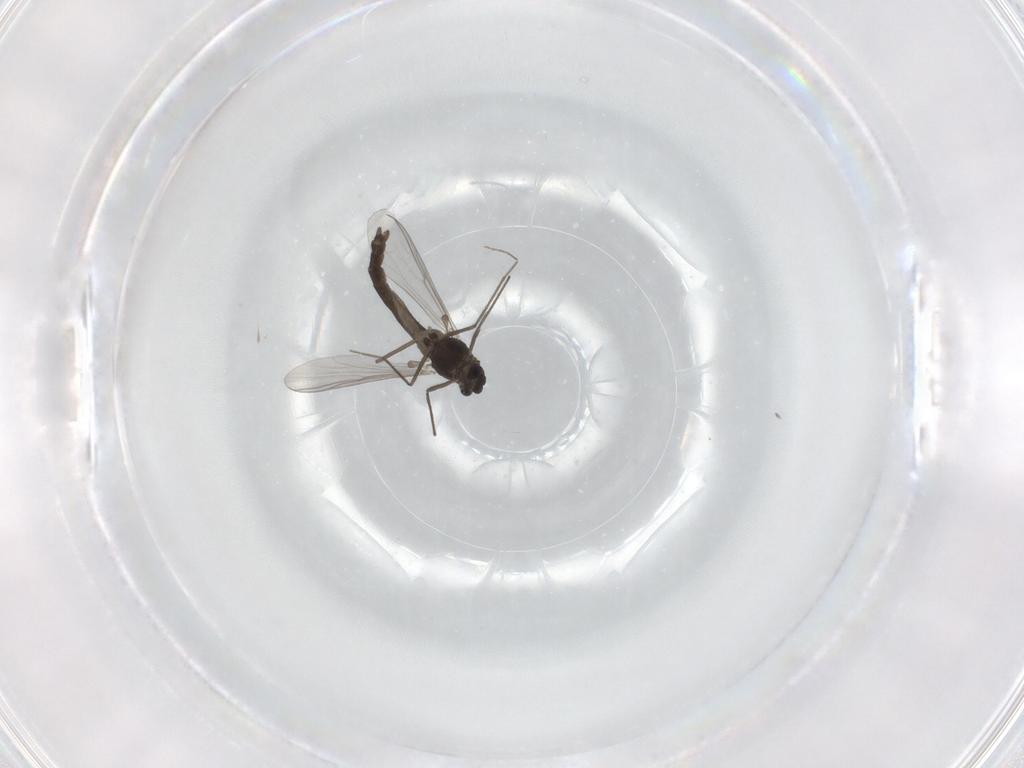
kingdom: Animalia
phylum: Arthropoda
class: Insecta
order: Diptera
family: Chironomidae
